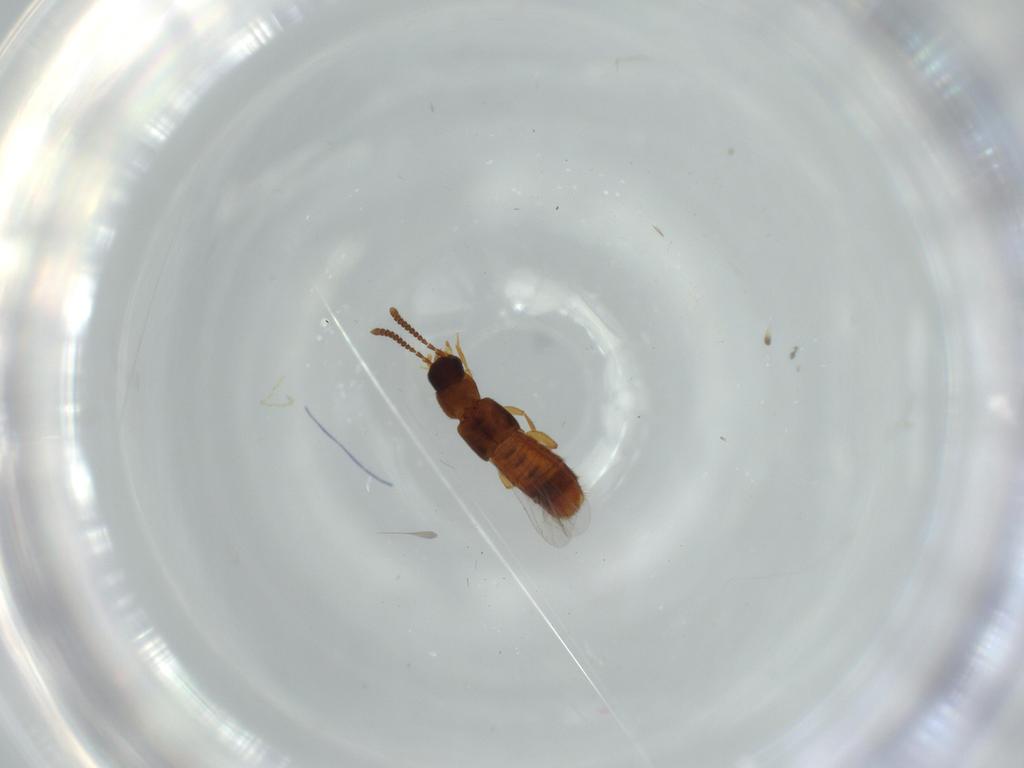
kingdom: Animalia
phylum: Arthropoda
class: Insecta
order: Coleoptera
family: Staphylinidae
